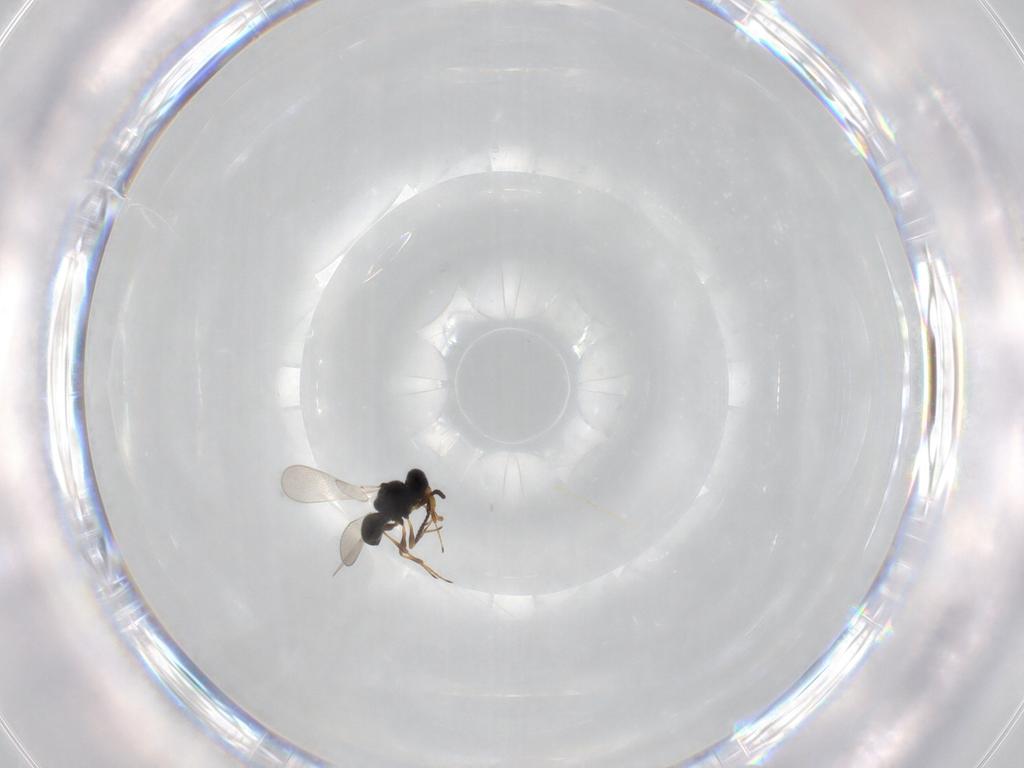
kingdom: Animalia
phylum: Arthropoda
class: Insecta
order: Hymenoptera
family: Platygastridae
